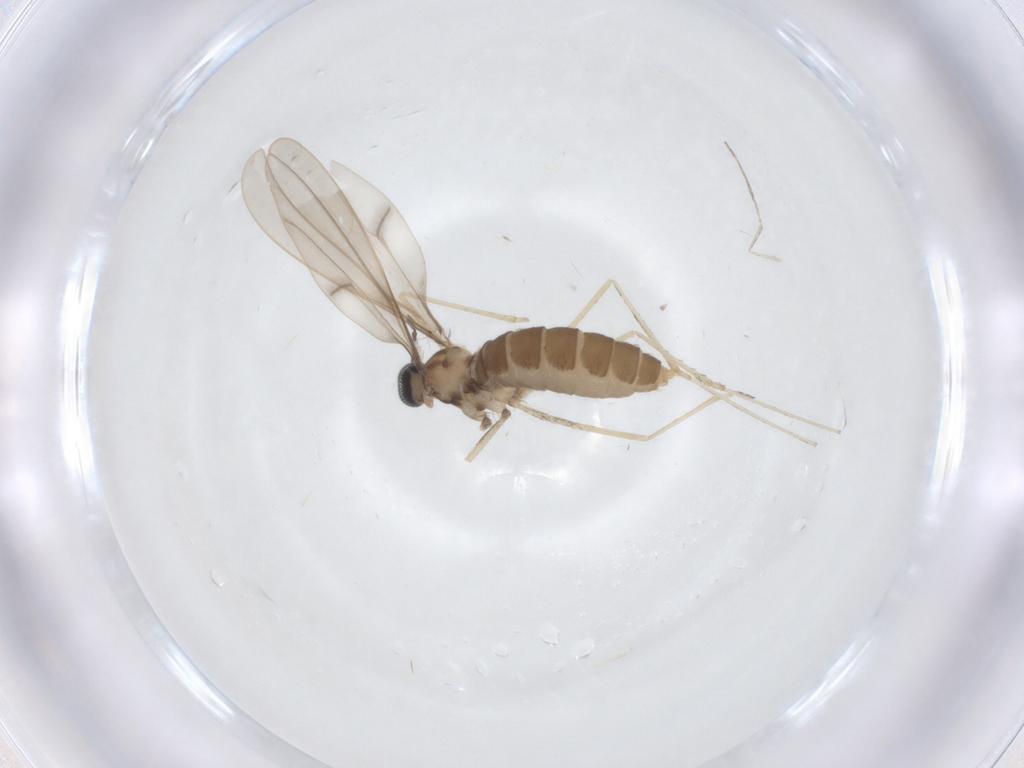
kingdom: Animalia
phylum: Arthropoda
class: Insecta
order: Diptera
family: Cecidomyiidae
